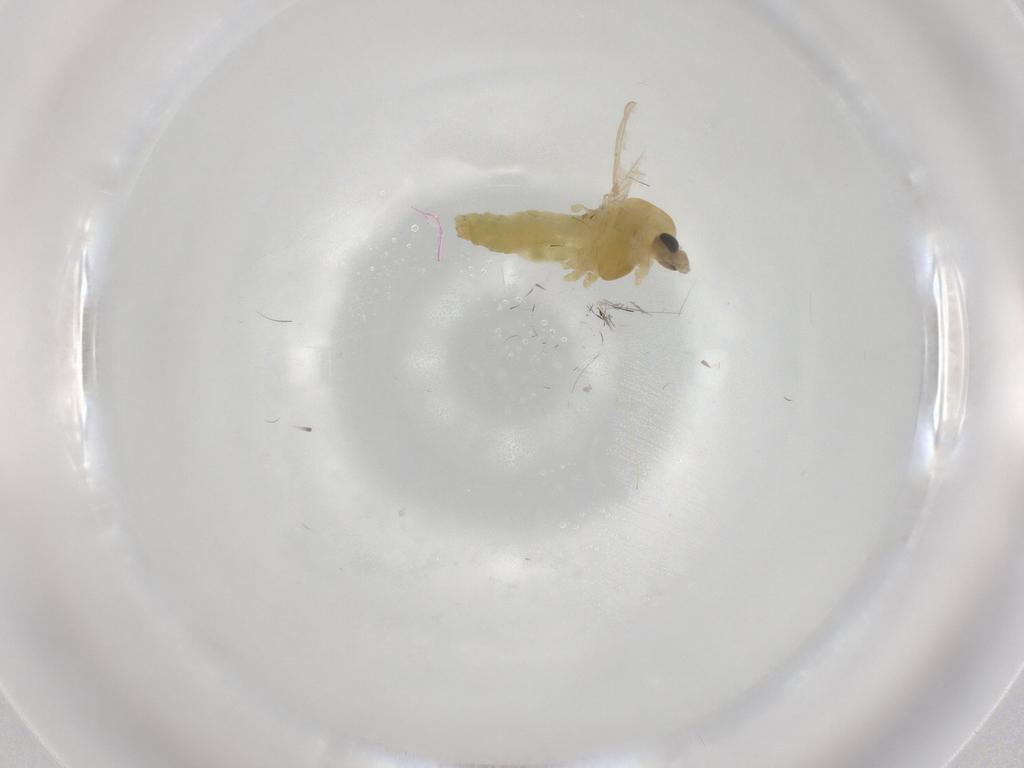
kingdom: Animalia
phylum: Arthropoda
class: Insecta
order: Diptera
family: Chironomidae
